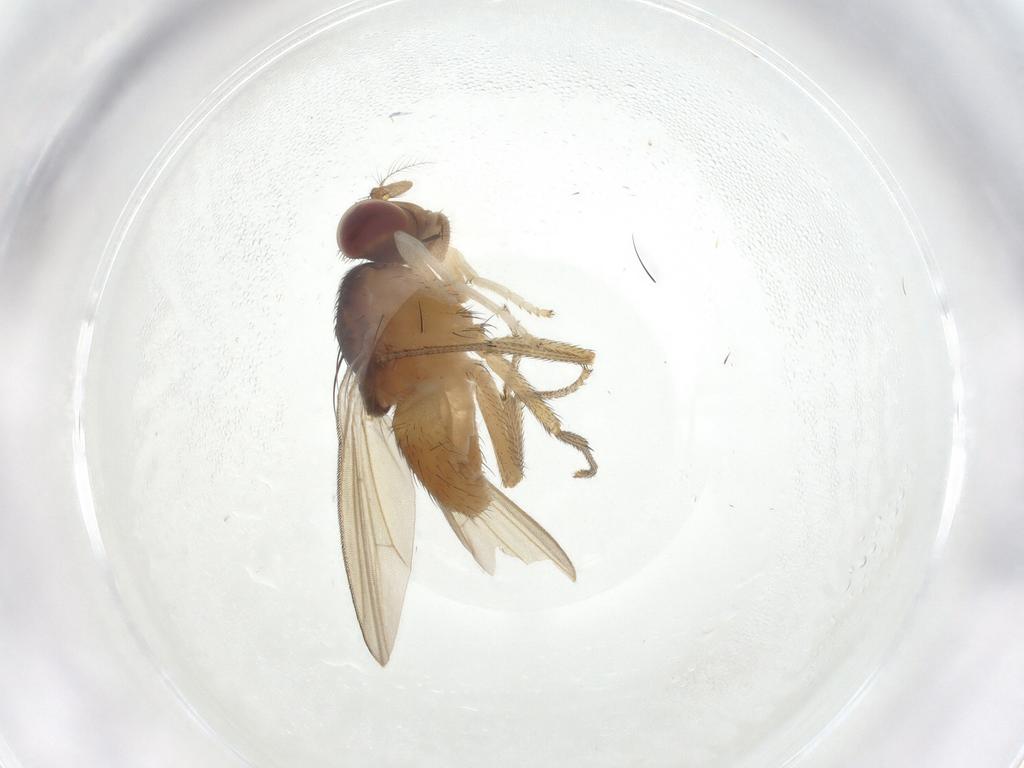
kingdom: Animalia
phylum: Arthropoda
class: Insecta
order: Diptera
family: Lauxaniidae
